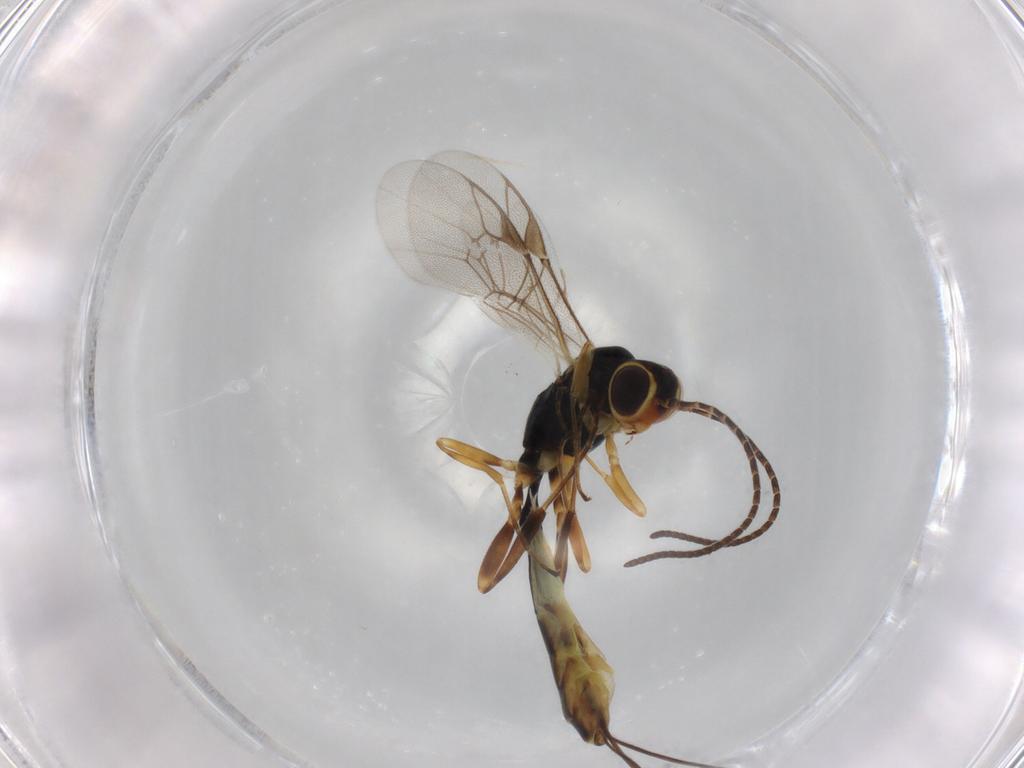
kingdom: Animalia
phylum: Arthropoda
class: Insecta
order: Hymenoptera
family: Ichneumonidae
